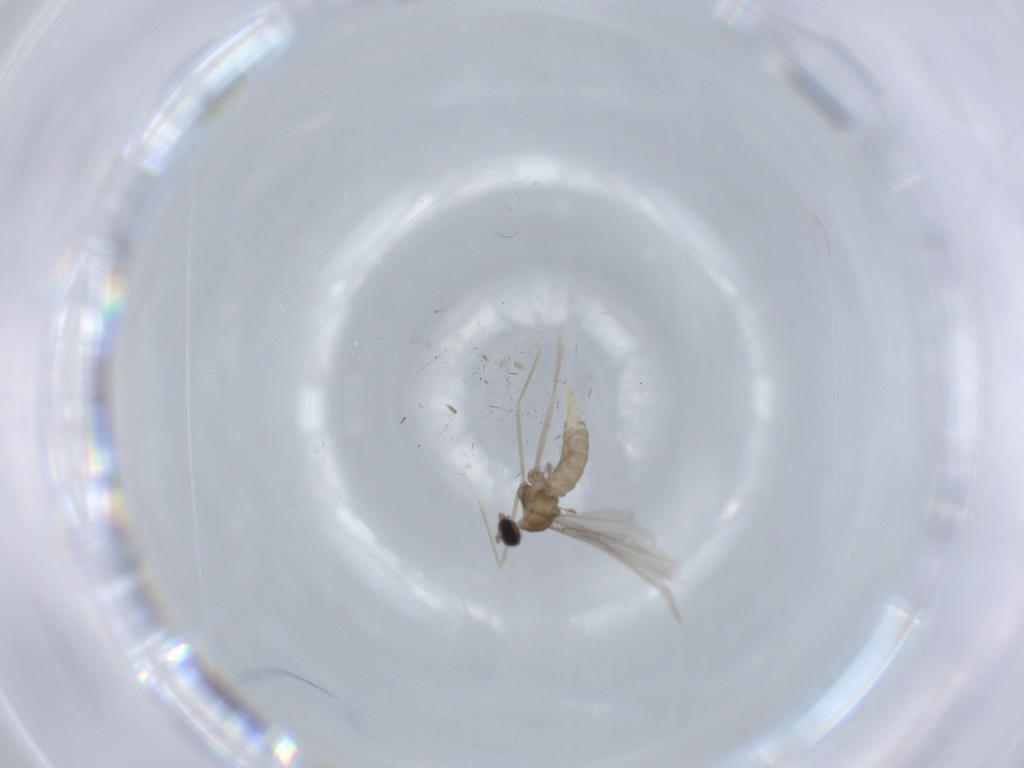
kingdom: Animalia
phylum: Arthropoda
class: Insecta
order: Diptera
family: Cecidomyiidae
